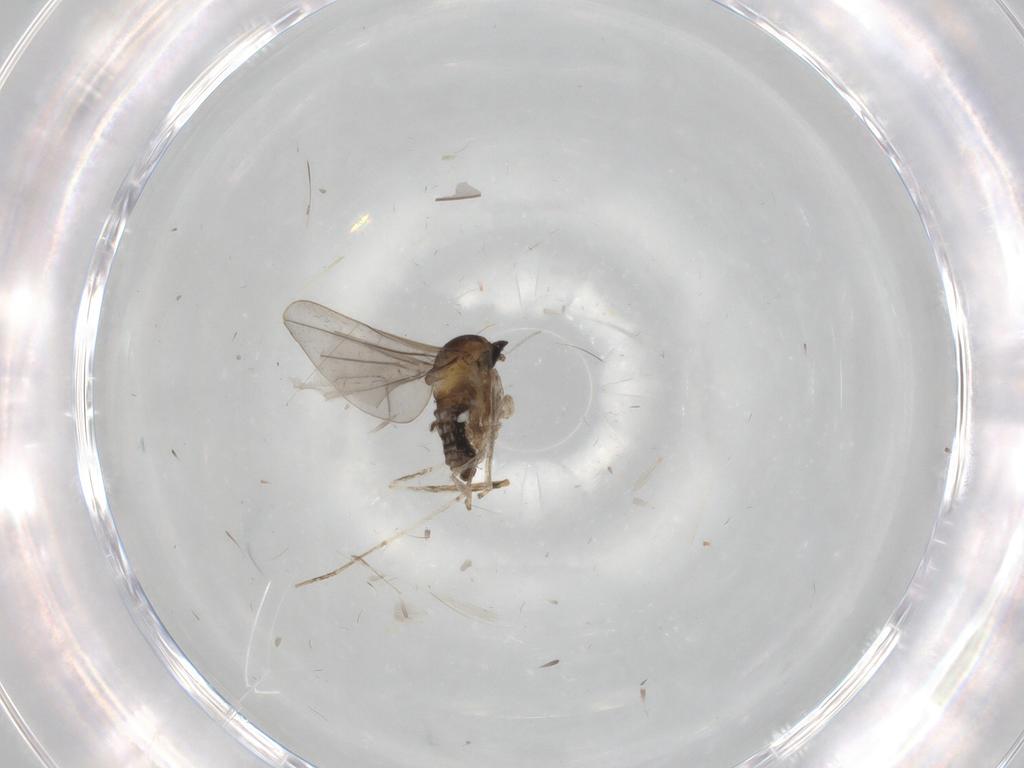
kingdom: Animalia
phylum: Arthropoda
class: Insecta
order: Diptera
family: Cecidomyiidae
